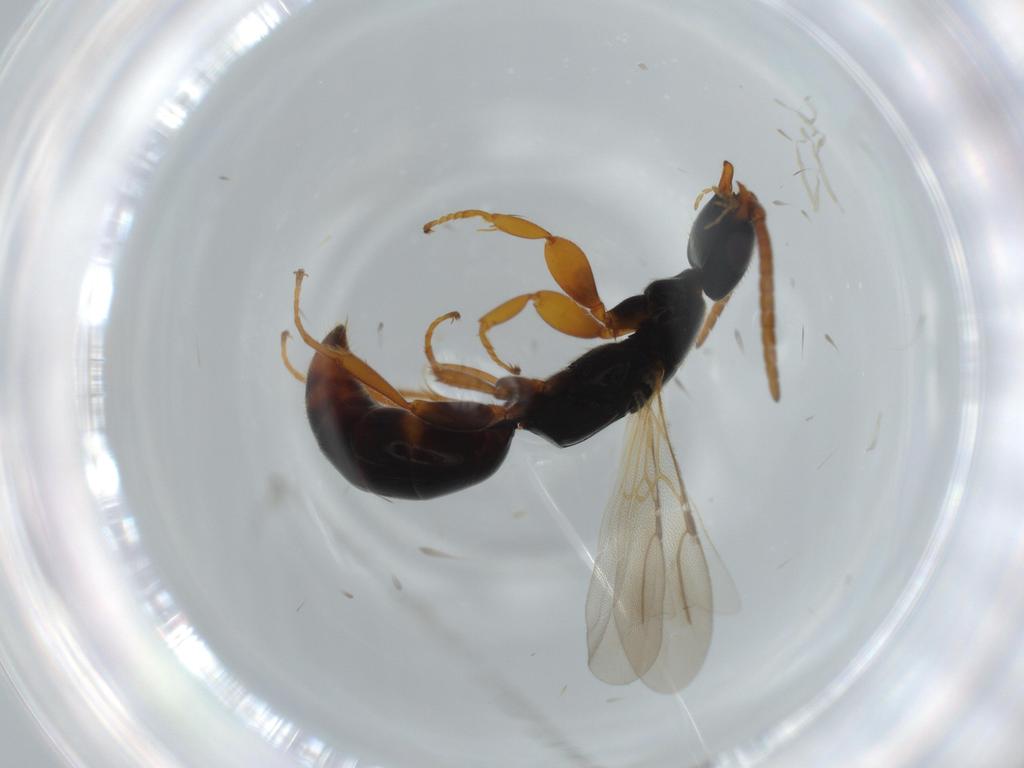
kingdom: Animalia
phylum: Arthropoda
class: Insecta
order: Hymenoptera
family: Bethylidae
